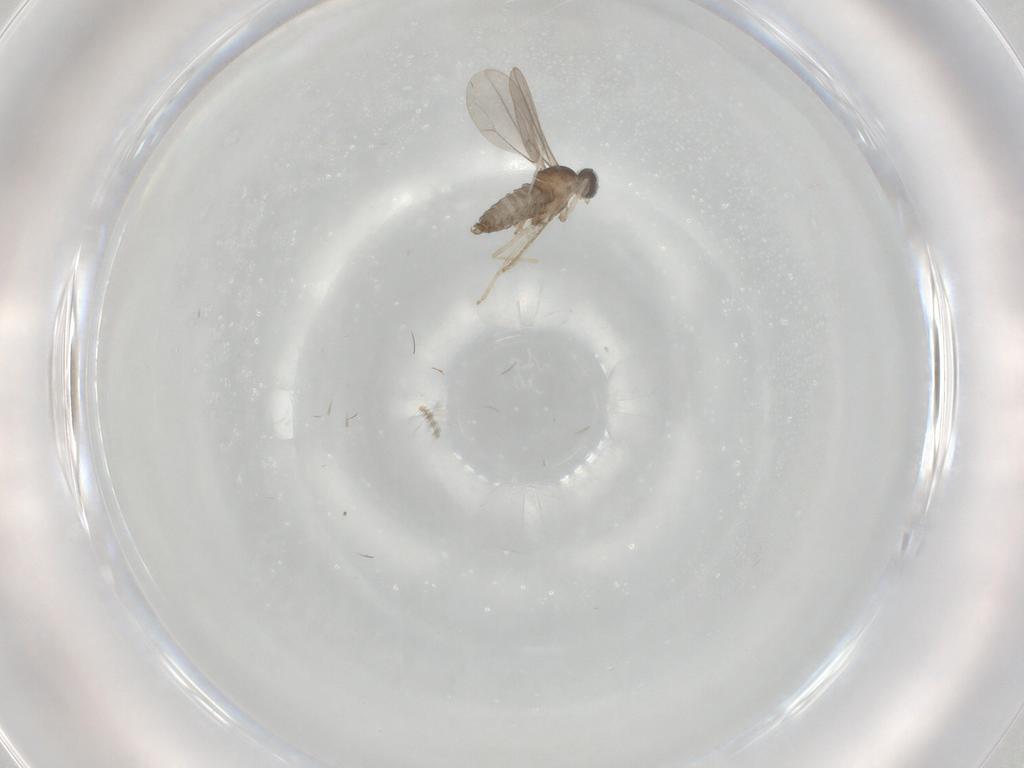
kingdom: Animalia
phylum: Arthropoda
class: Insecta
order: Diptera
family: Cecidomyiidae
